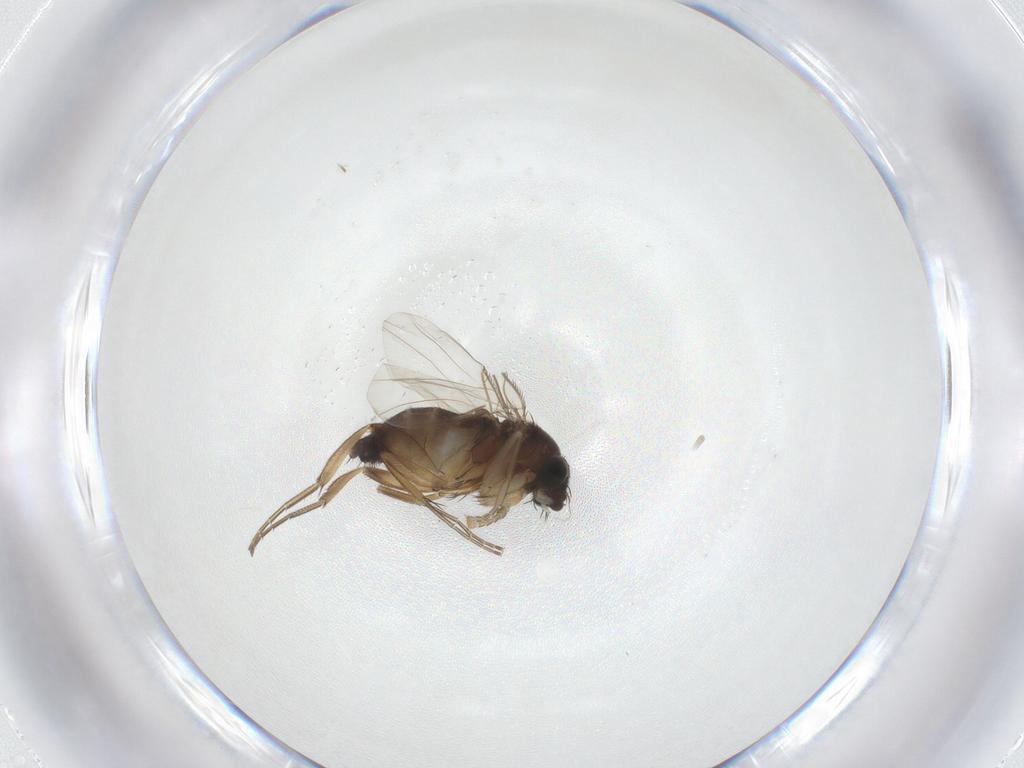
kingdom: Animalia
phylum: Arthropoda
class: Insecta
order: Diptera
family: Phoridae
